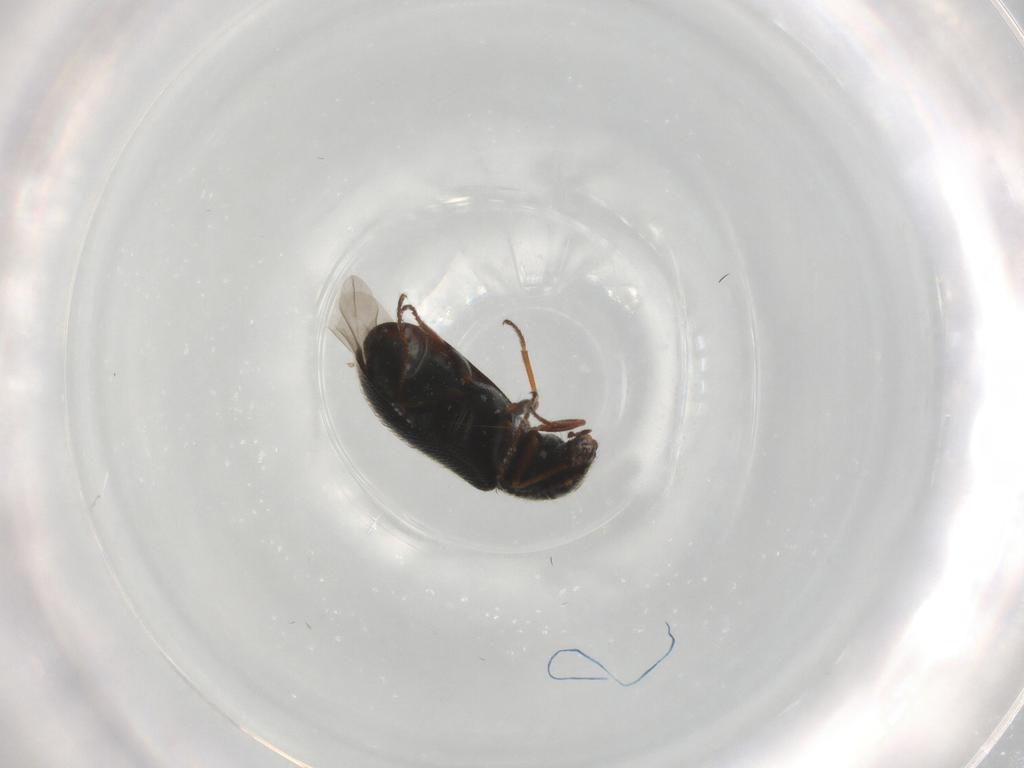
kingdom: Animalia
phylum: Arthropoda
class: Insecta
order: Coleoptera
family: Melyridae
